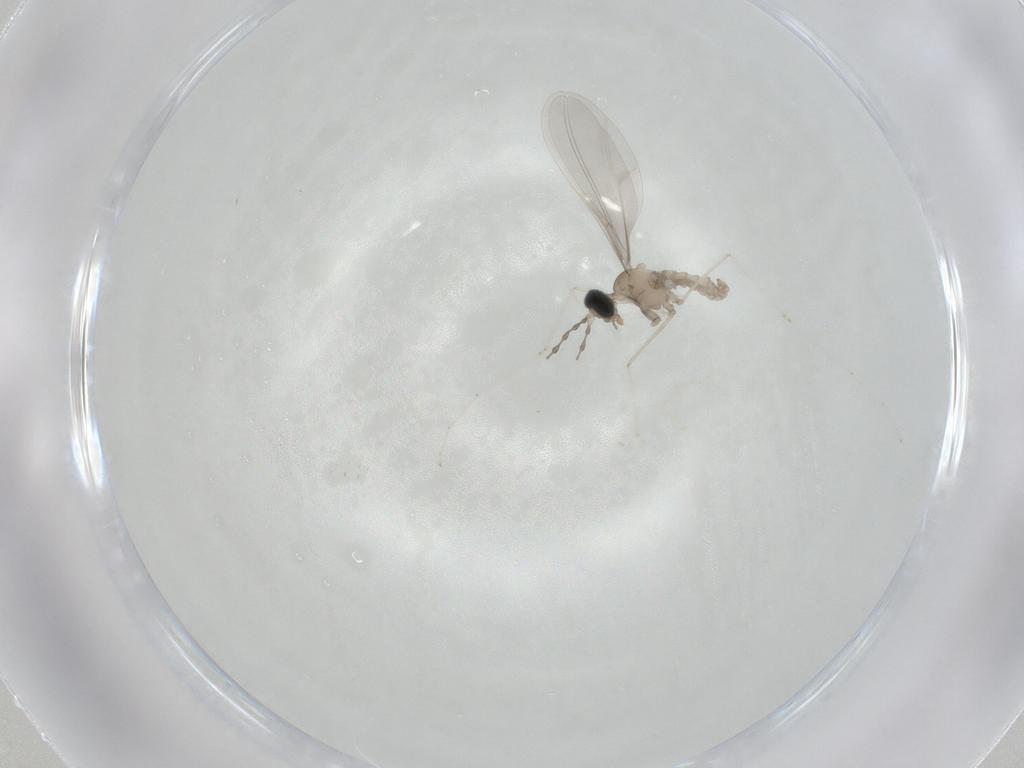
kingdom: Animalia
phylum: Arthropoda
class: Insecta
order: Diptera
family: Cecidomyiidae
